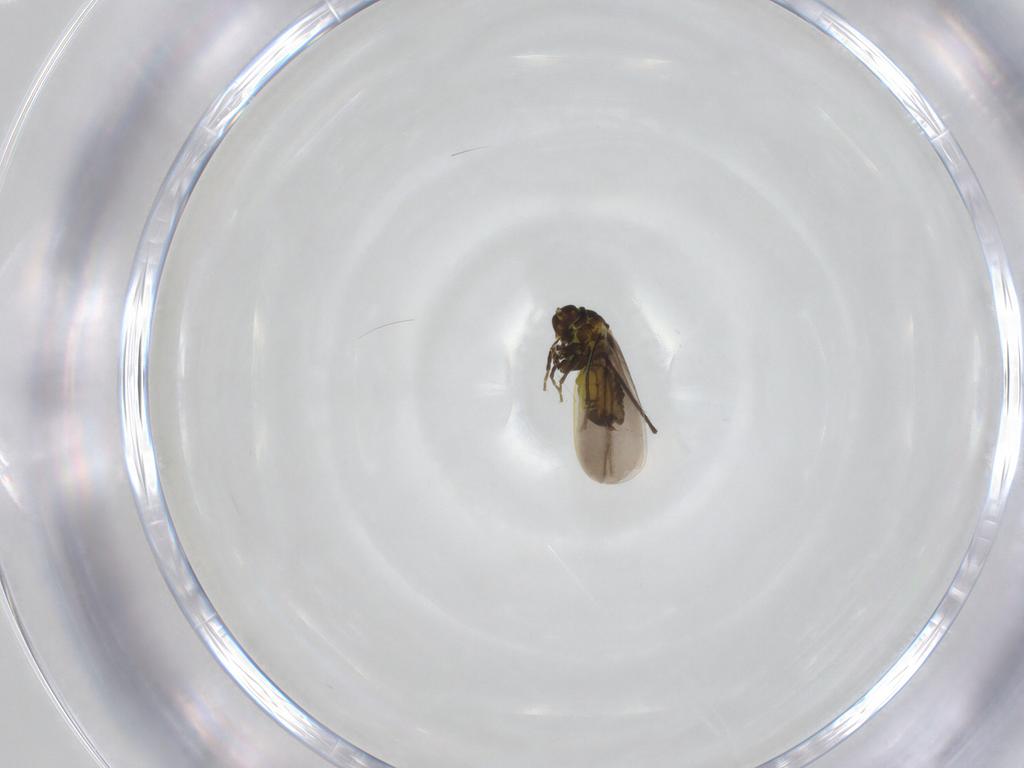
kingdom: Animalia
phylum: Arthropoda
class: Insecta
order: Hemiptera
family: Aleyrodidae
